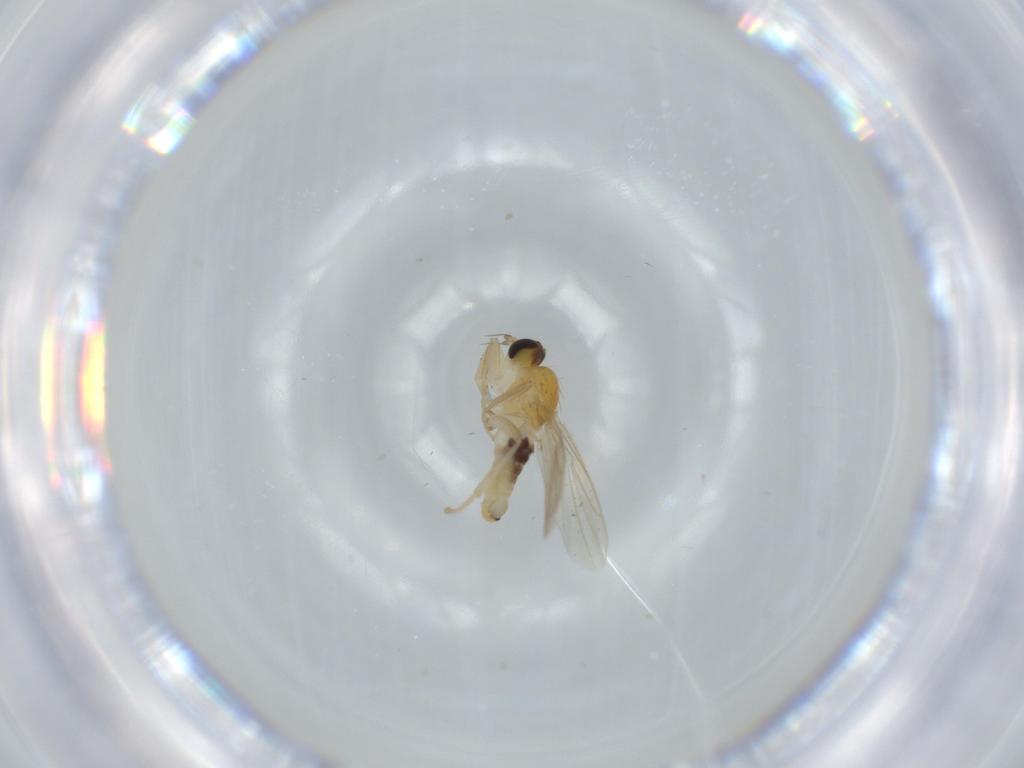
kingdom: Animalia
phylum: Arthropoda
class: Insecta
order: Diptera
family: Hybotidae
